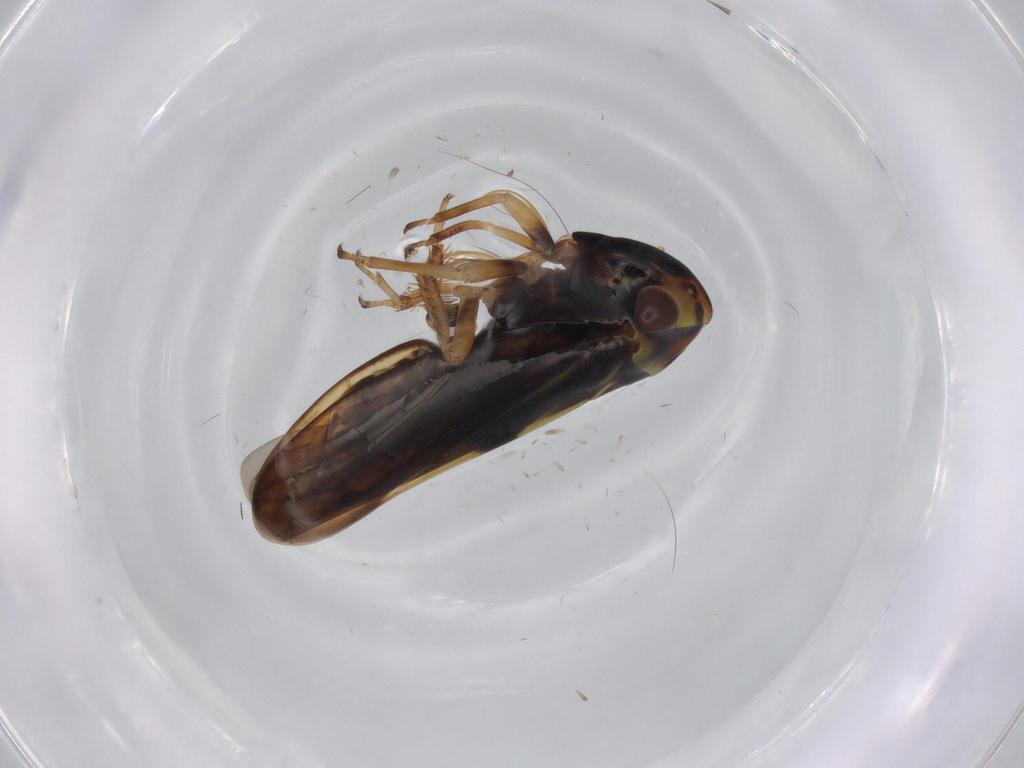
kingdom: Animalia
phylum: Arthropoda
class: Insecta
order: Hemiptera
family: Cicadellidae
